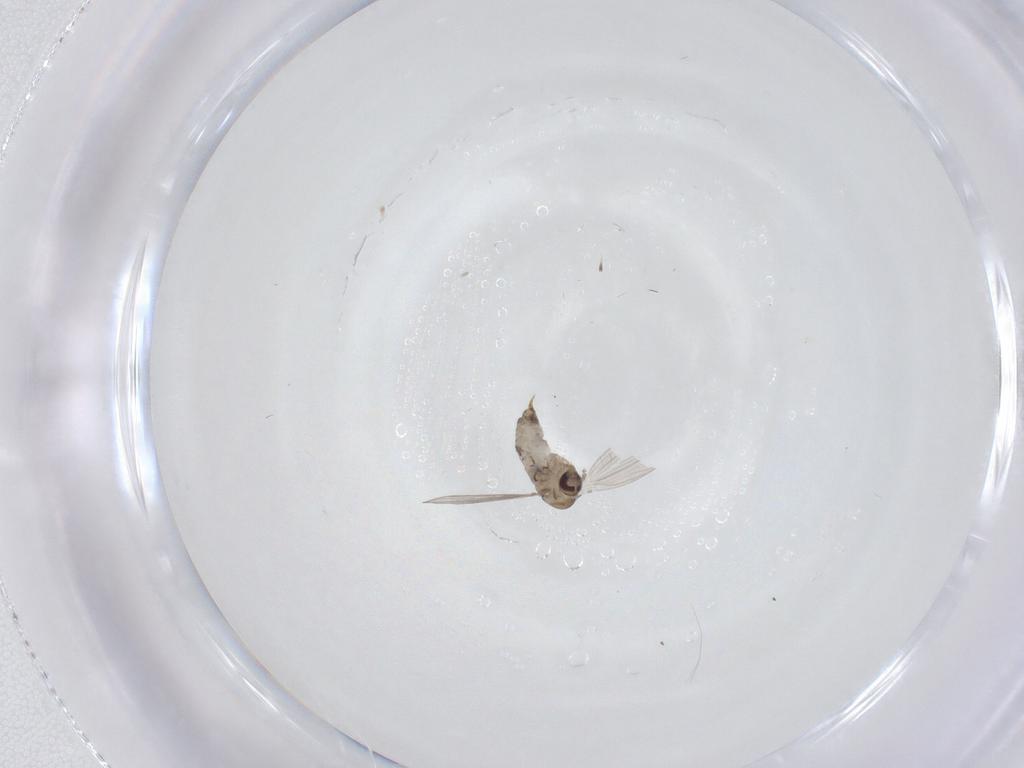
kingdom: Animalia
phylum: Arthropoda
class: Insecta
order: Diptera
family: Psychodidae
